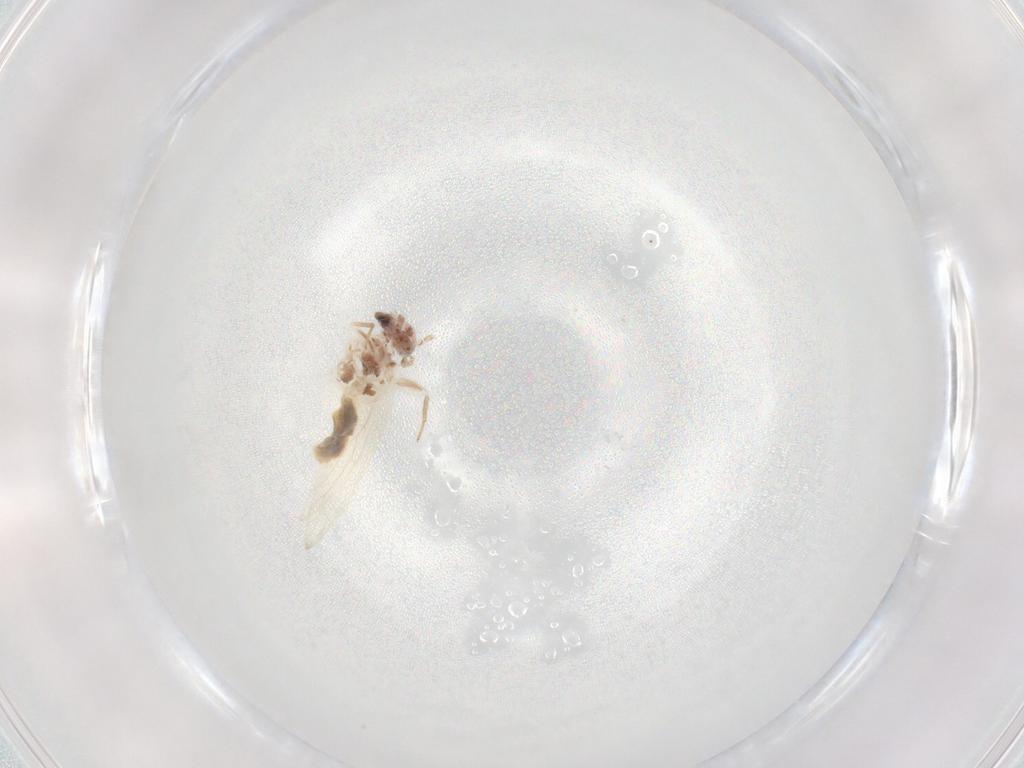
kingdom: Animalia
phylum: Arthropoda
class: Insecta
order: Psocodea
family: Lepidopsocidae
